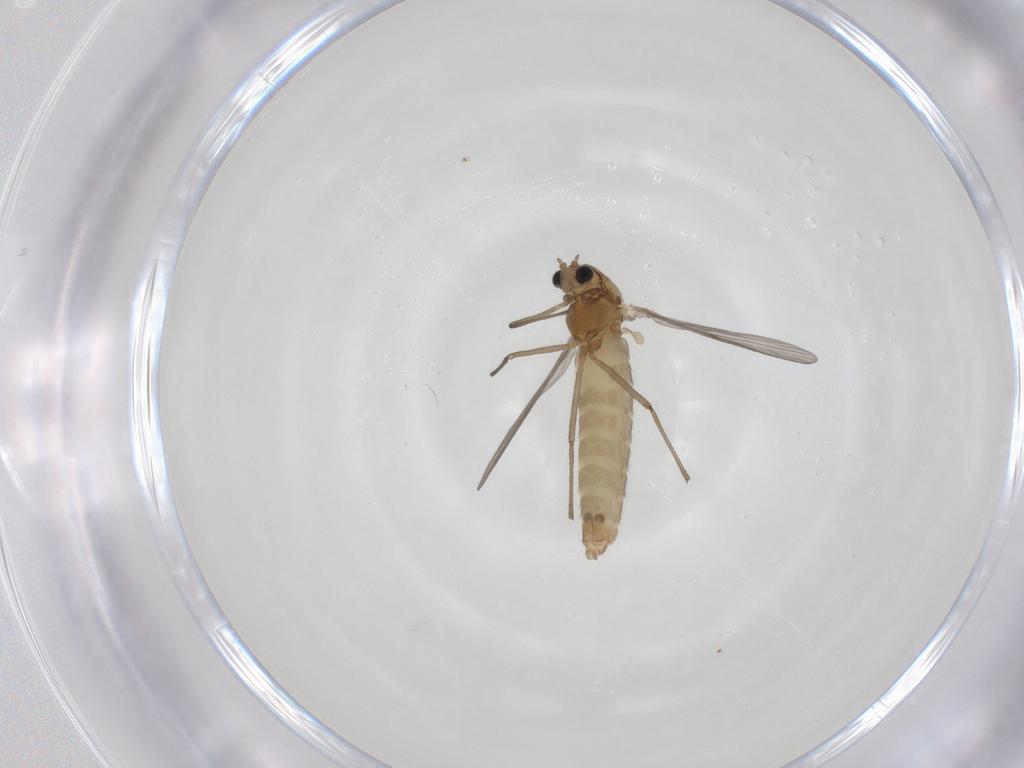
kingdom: Animalia
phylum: Arthropoda
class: Insecta
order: Diptera
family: Chironomidae
